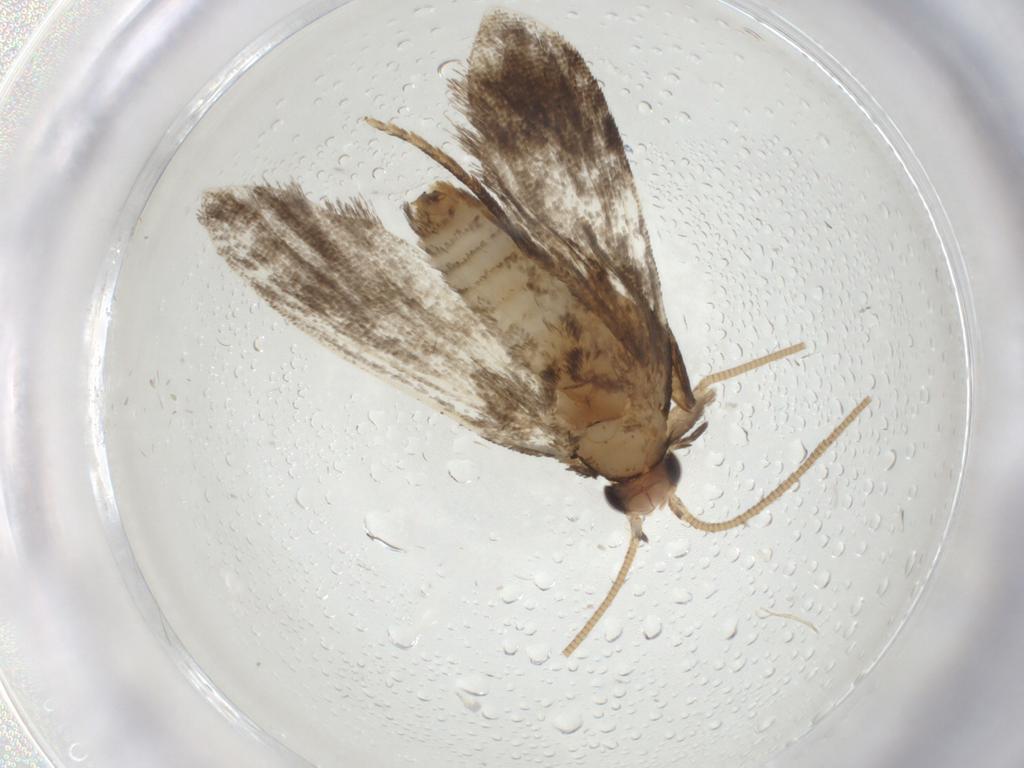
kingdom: Animalia
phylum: Arthropoda
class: Insecta
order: Lepidoptera
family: Tineidae
